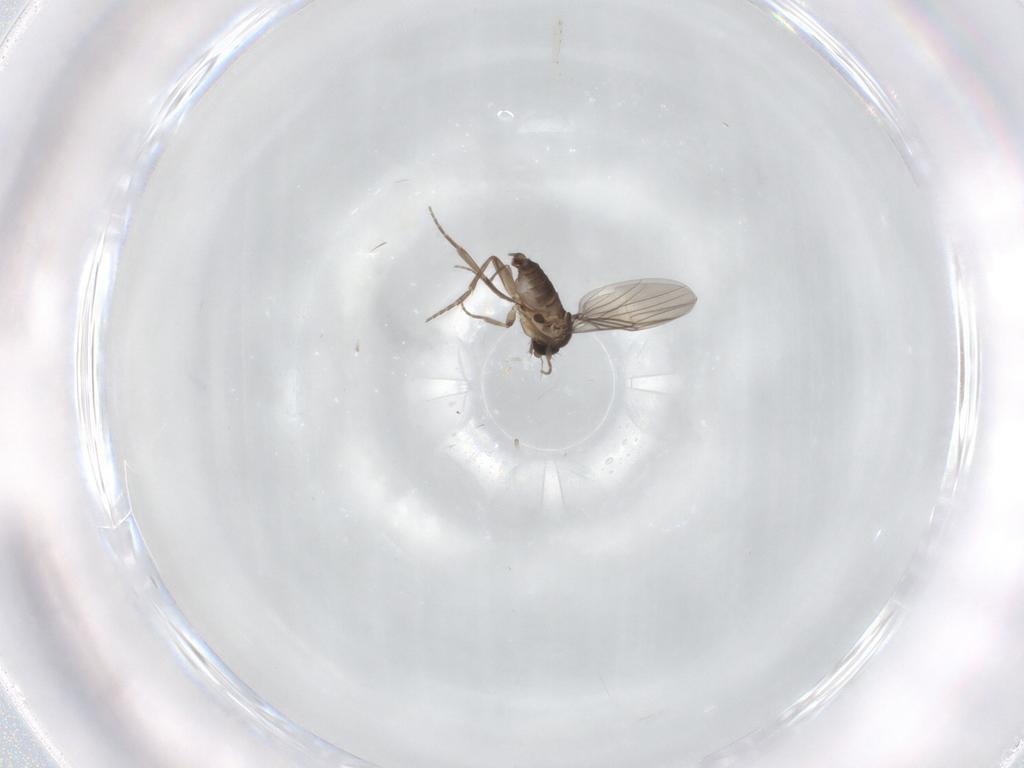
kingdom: Animalia
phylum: Arthropoda
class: Insecta
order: Diptera
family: Phoridae
